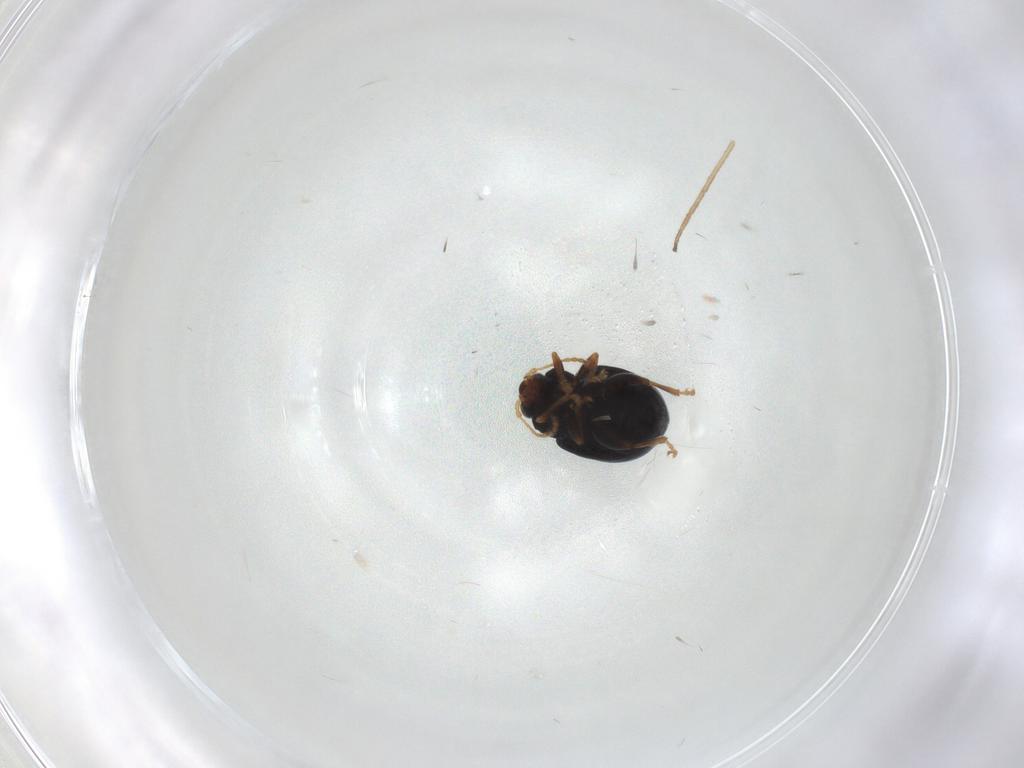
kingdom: Animalia
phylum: Arthropoda
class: Insecta
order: Coleoptera
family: Chrysomelidae
